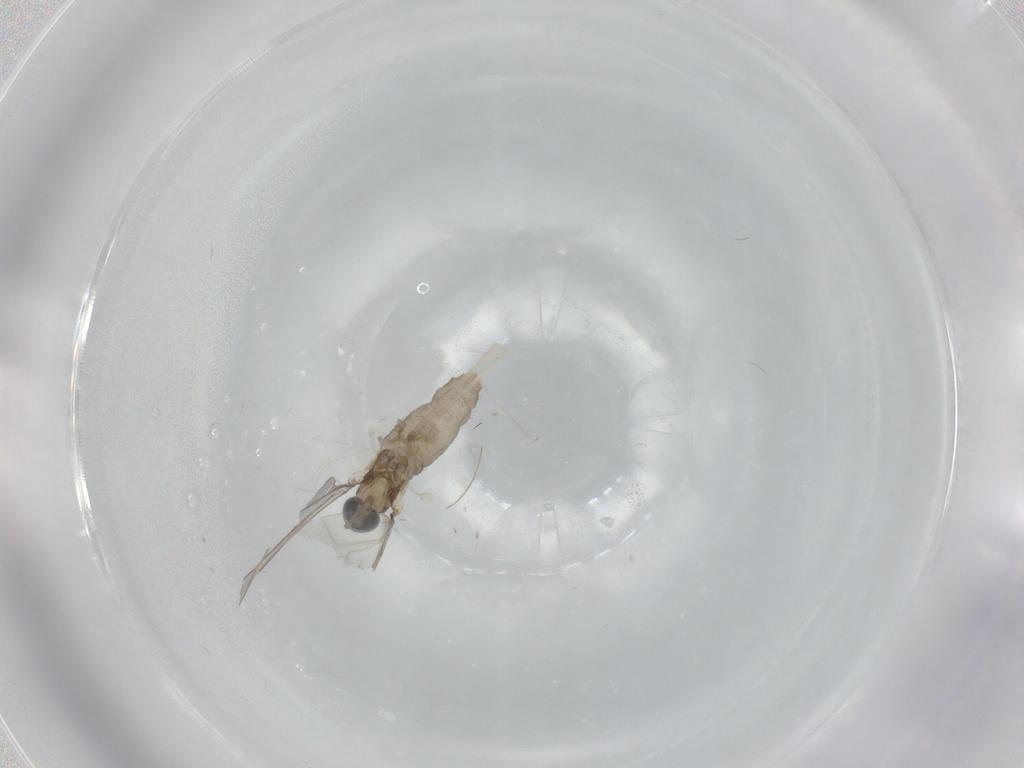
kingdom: Animalia
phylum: Arthropoda
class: Insecta
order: Diptera
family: Cecidomyiidae
